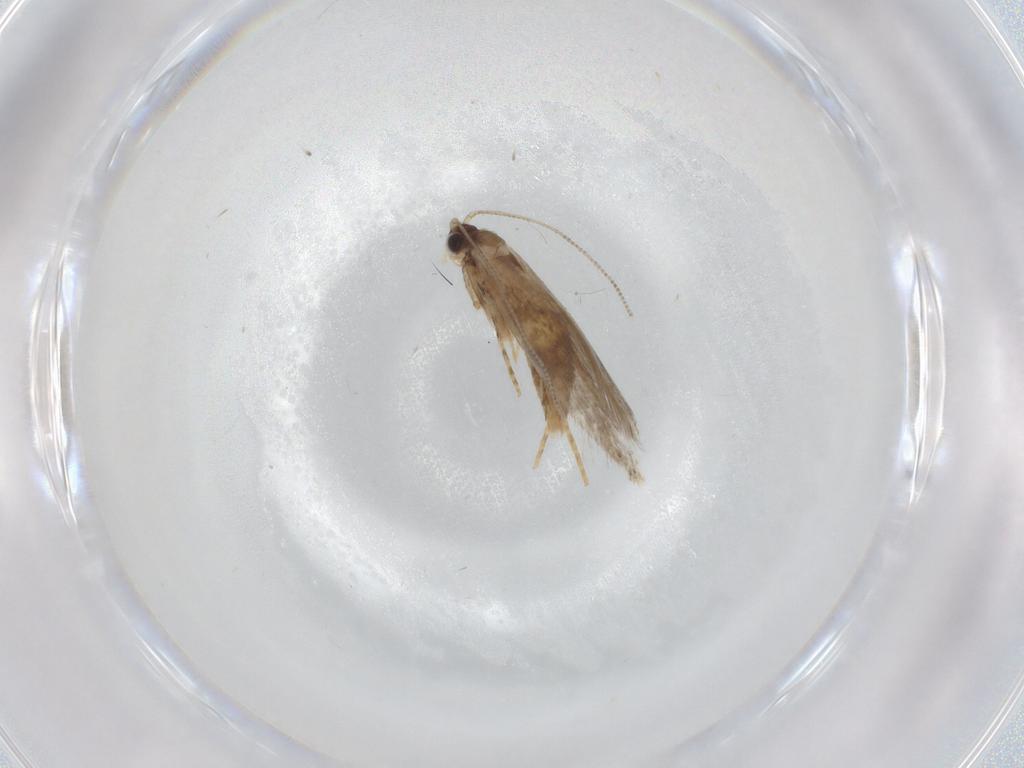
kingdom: Animalia
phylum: Arthropoda
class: Insecta
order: Lepidoptera
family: Tineidae
